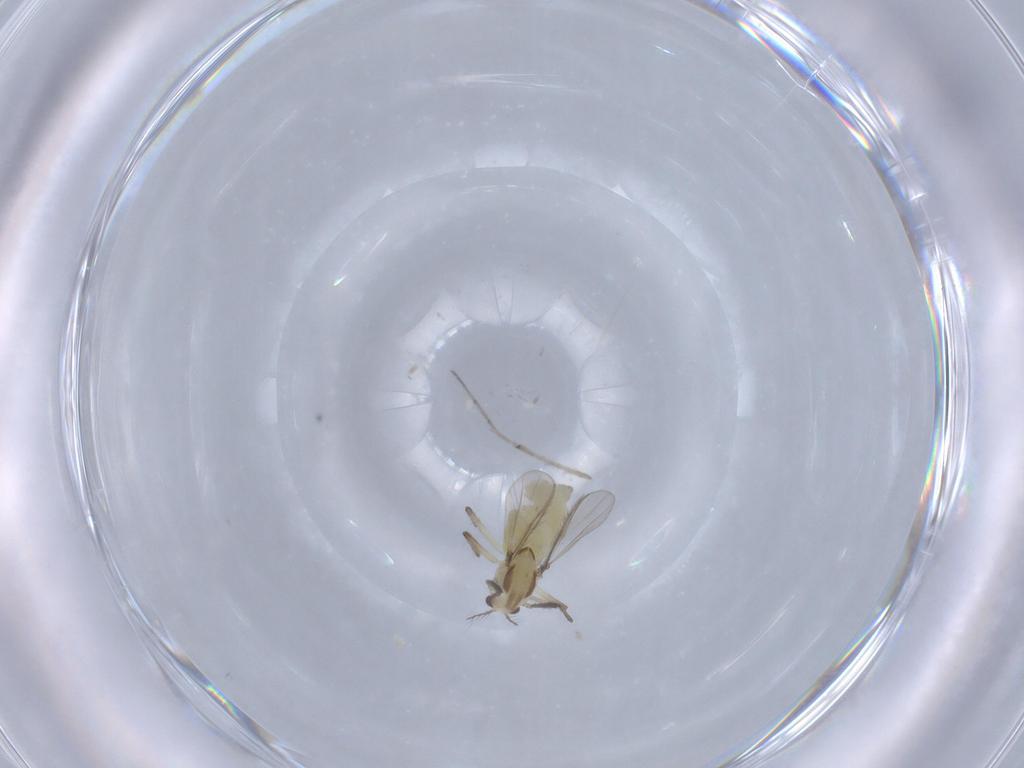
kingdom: Animalia
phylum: Arthropoda
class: Insecta
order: Diptera
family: Chironomidae
